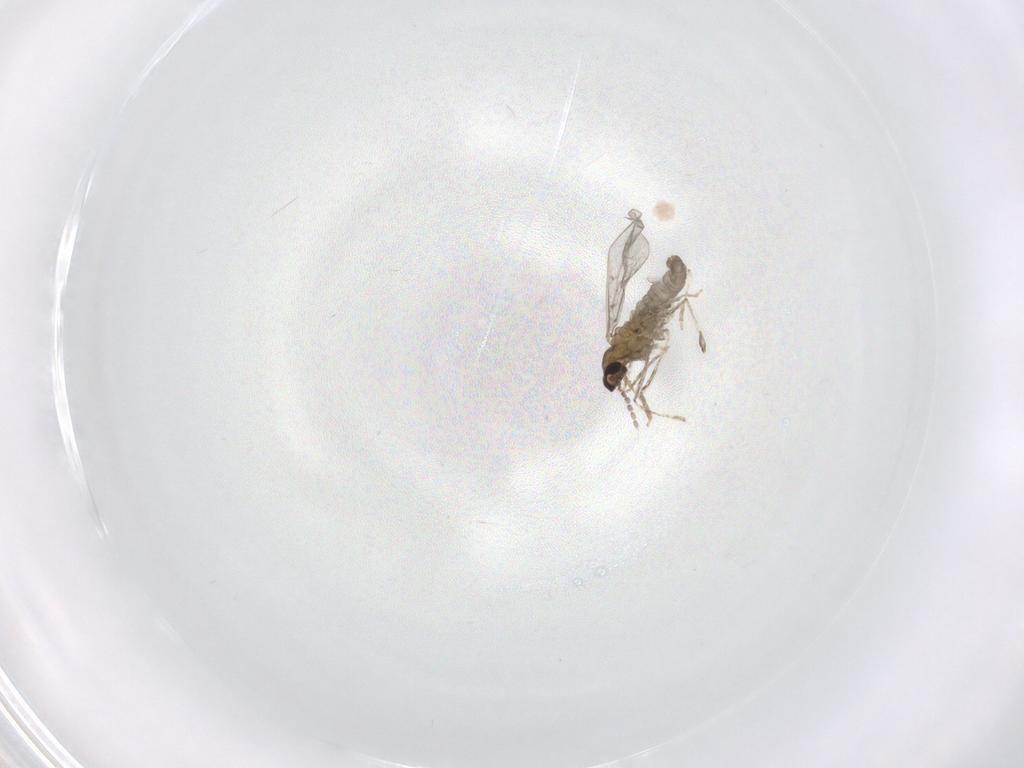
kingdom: Animalia
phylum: Arthropoda
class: Insecta
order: Diptera
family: Cecidomyiidae
